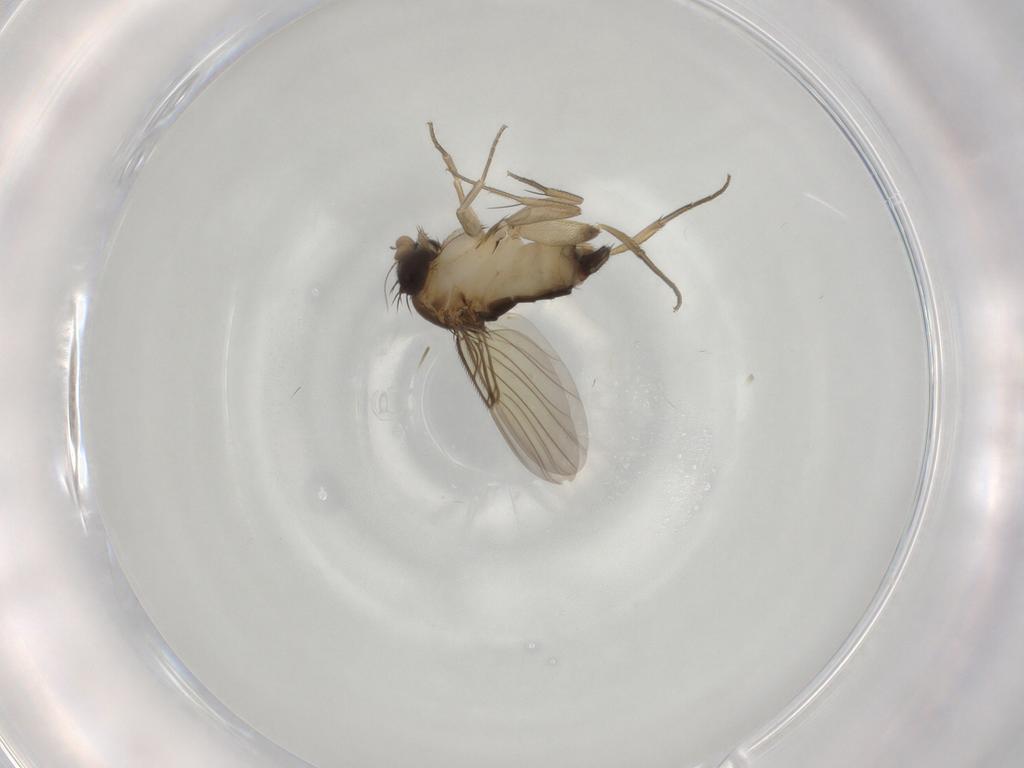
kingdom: Animalia
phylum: Arthropoda
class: Insecta
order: Diptera
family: Phoridae
